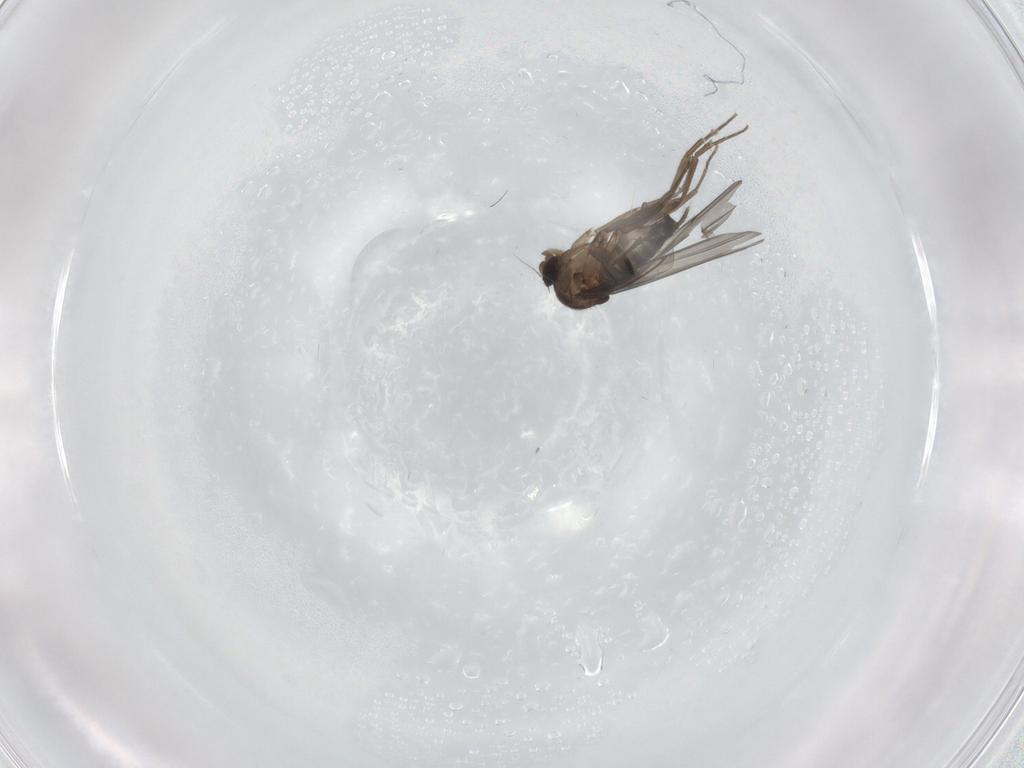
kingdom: Animalia
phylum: Arthropoda
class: Insecta
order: Diptera
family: Phoridae
